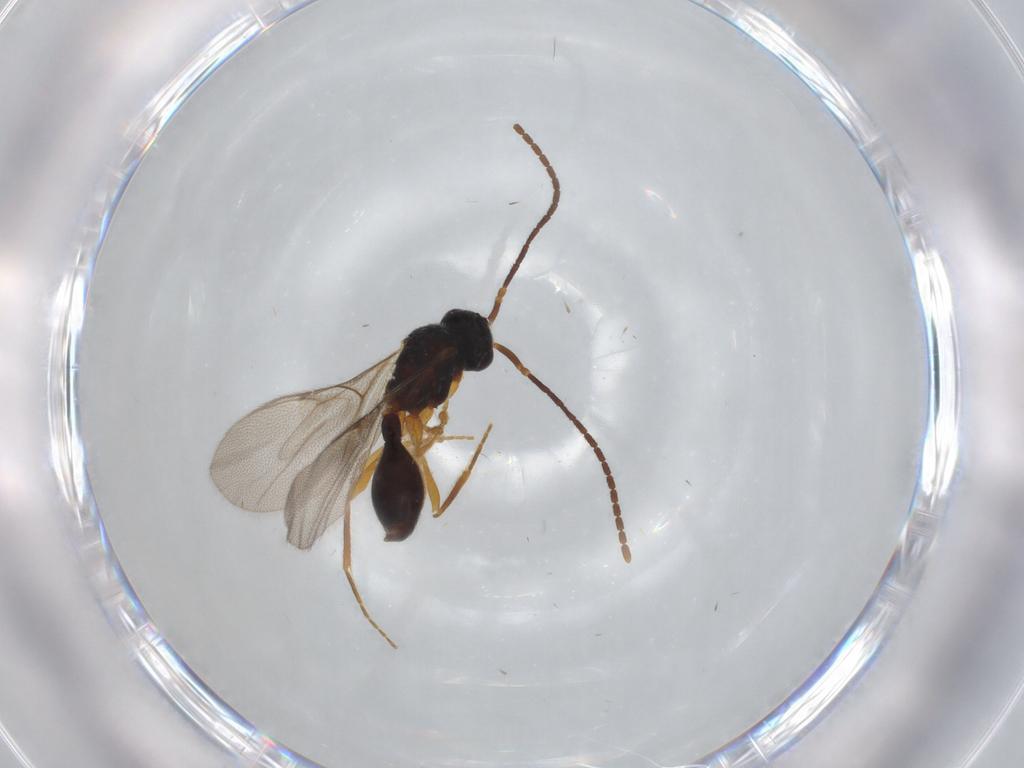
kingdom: Animalia
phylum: Arthropoda
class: Insecta
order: Hymenoptera
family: Diapriidae
